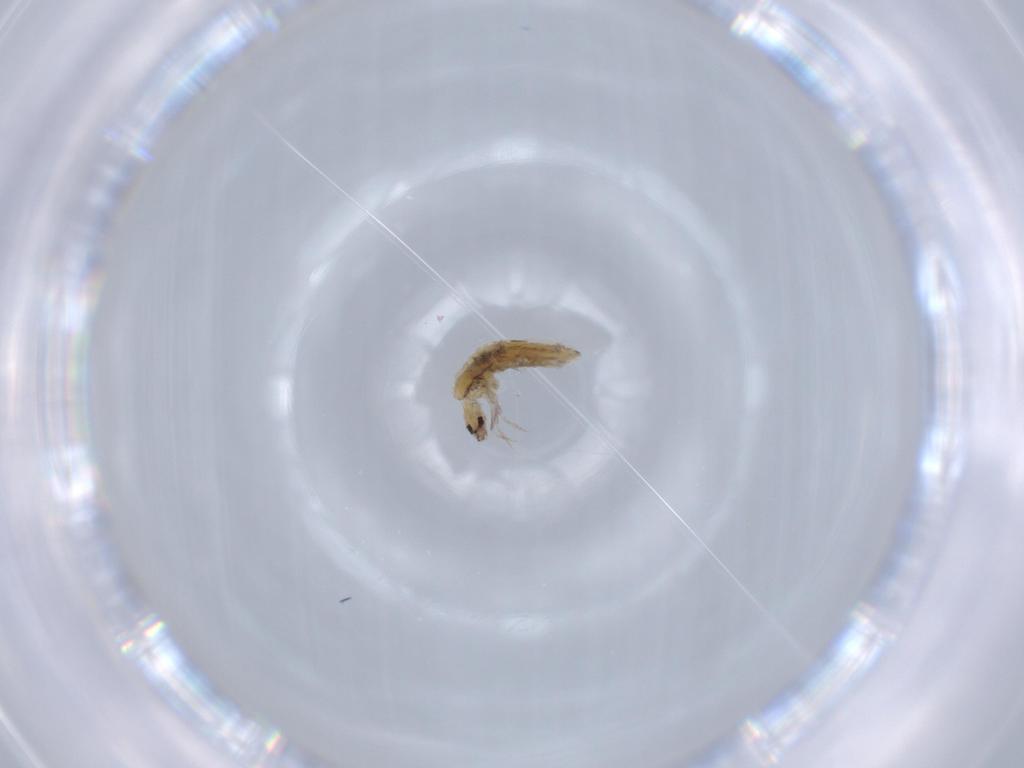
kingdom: Animalia
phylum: Arthropoda
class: Collembola
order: Poduromorpha
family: Hypogastruridae
